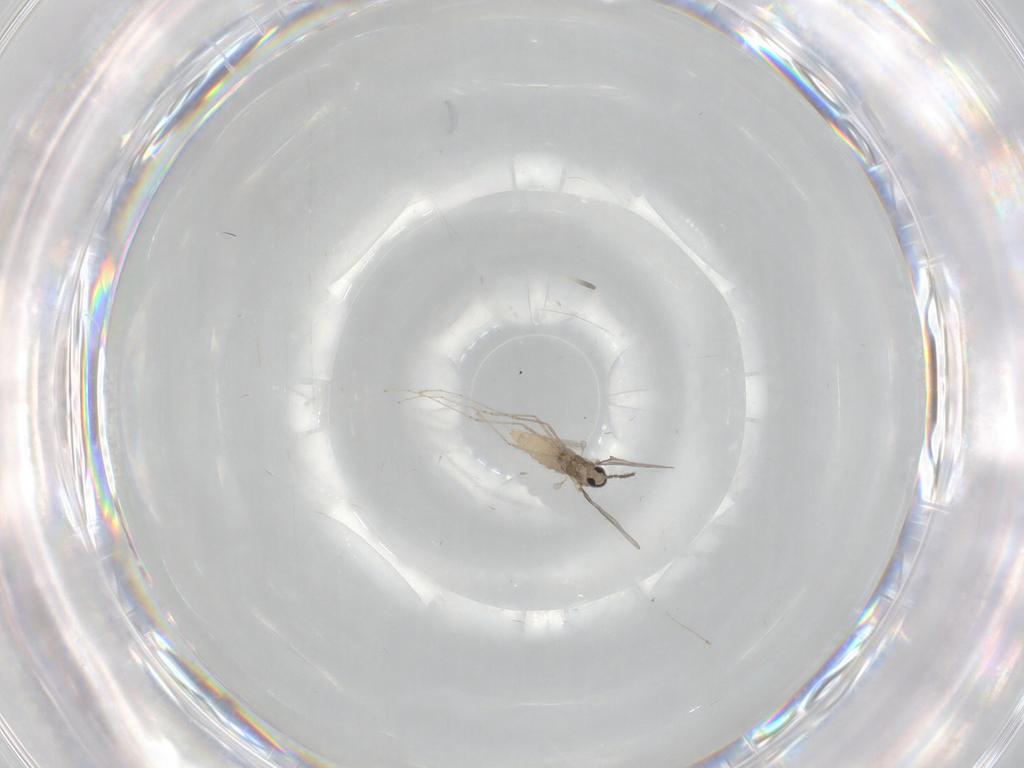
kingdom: Animalia
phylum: Arthropoda
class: Insecta
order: Diptera
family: Cecidomyiidae
